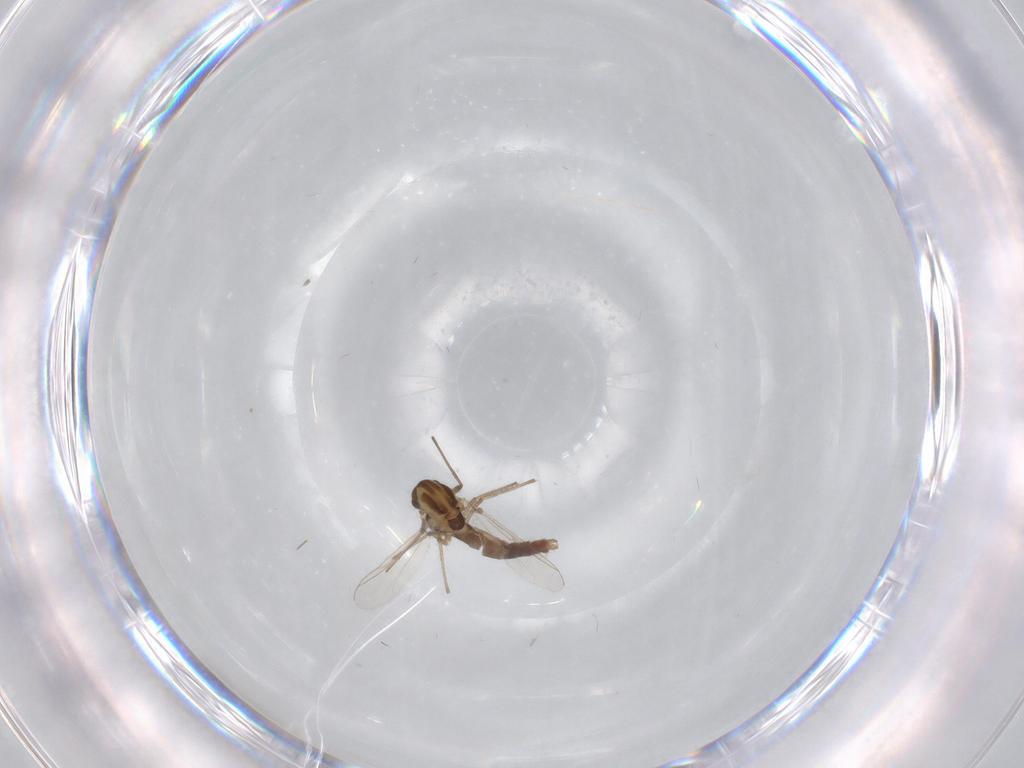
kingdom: Animalia
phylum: Arthropoda
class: Insecta
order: Diptera
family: Chironomidae
